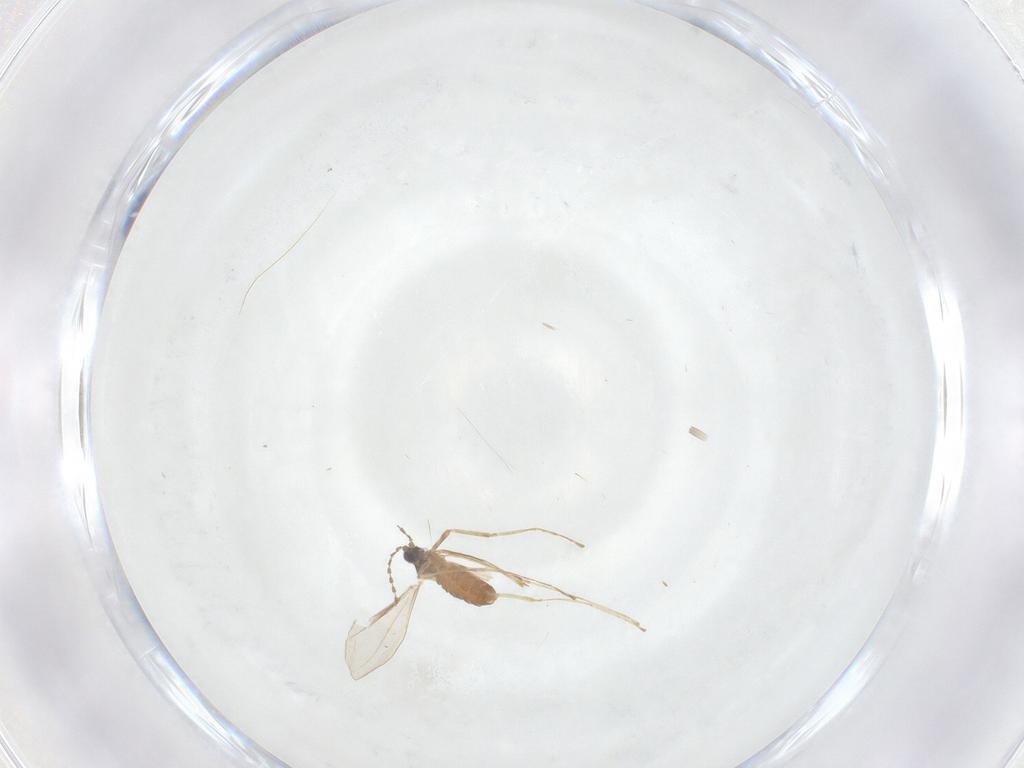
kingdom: Animalia
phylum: Arthropoda
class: Insecta
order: Diptera
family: Cecidomyiidae
